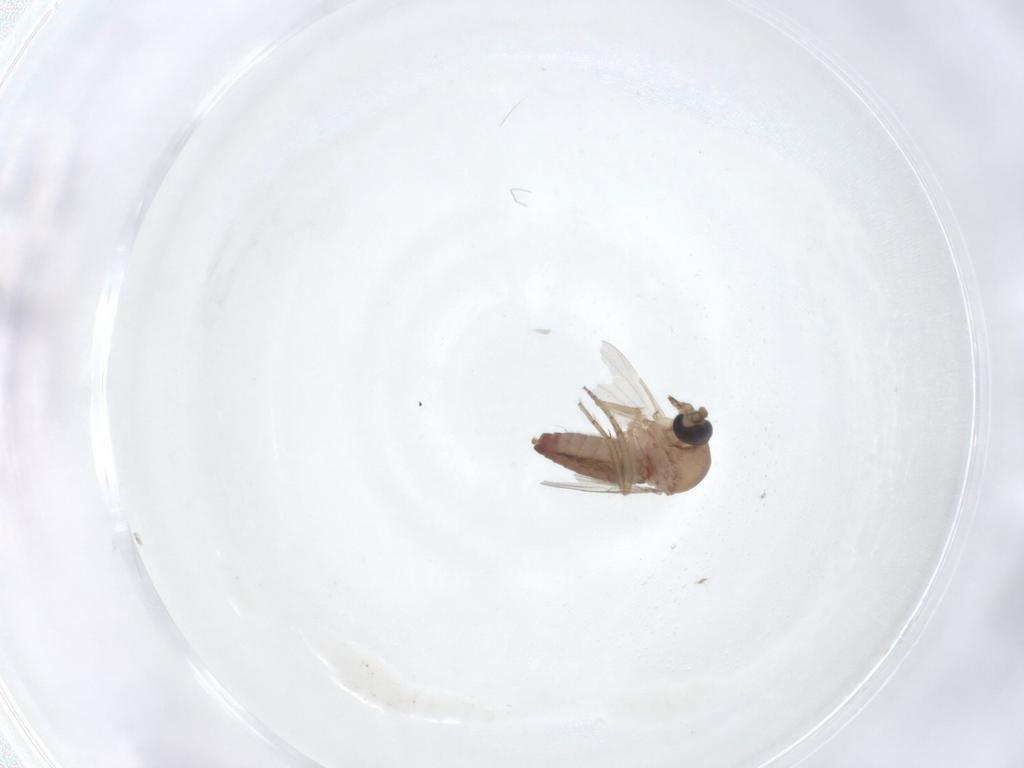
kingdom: Animalia
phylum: Arthropoda
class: Insecta
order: Diptera
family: Ceratopogonidae
